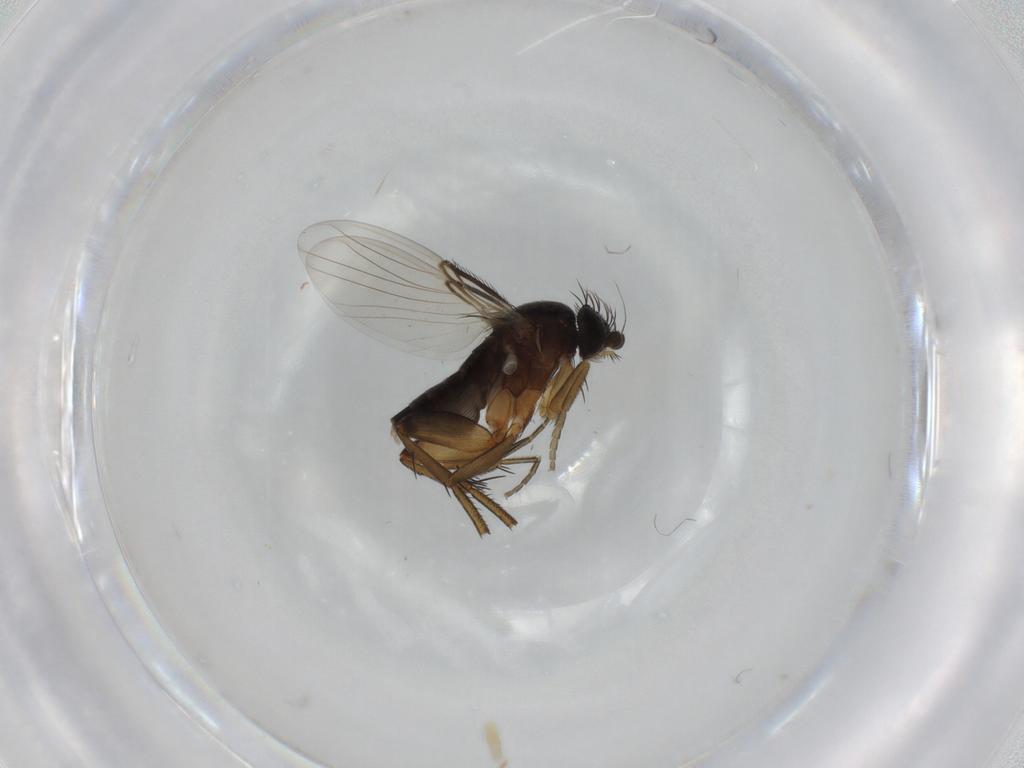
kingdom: Animalia
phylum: Arthropoda
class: Insecta
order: Diptera
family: Phoridae
